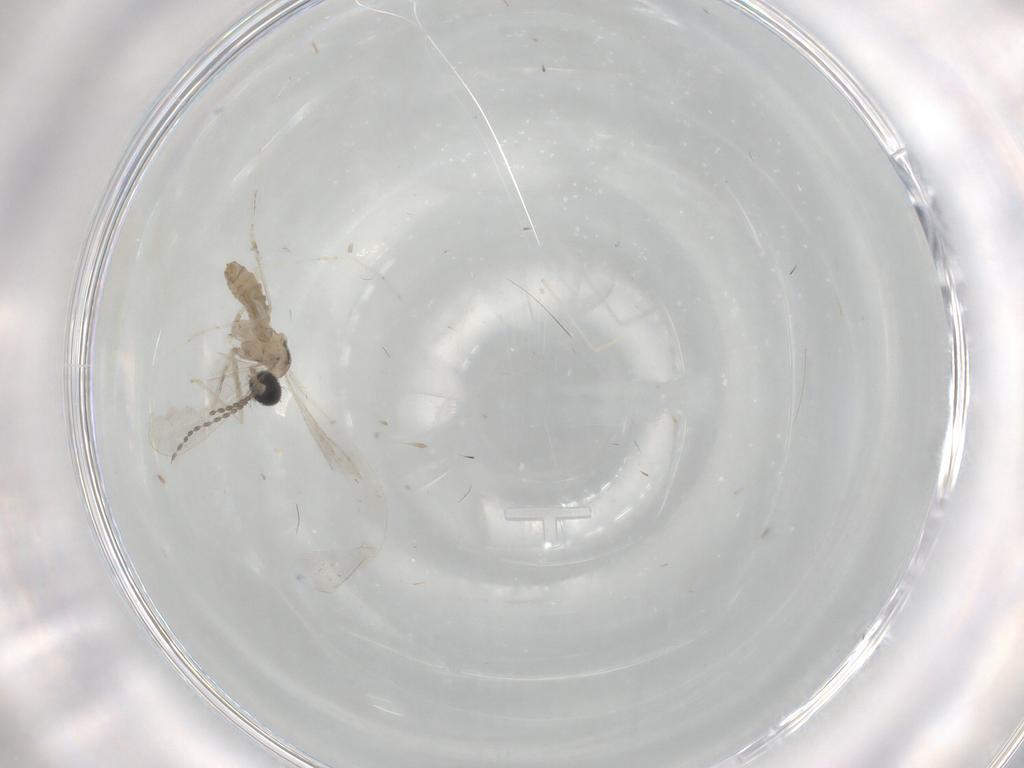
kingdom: Animalia
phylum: Arthropoda
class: Insecta
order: Diptera
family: Cecidomyiidae
